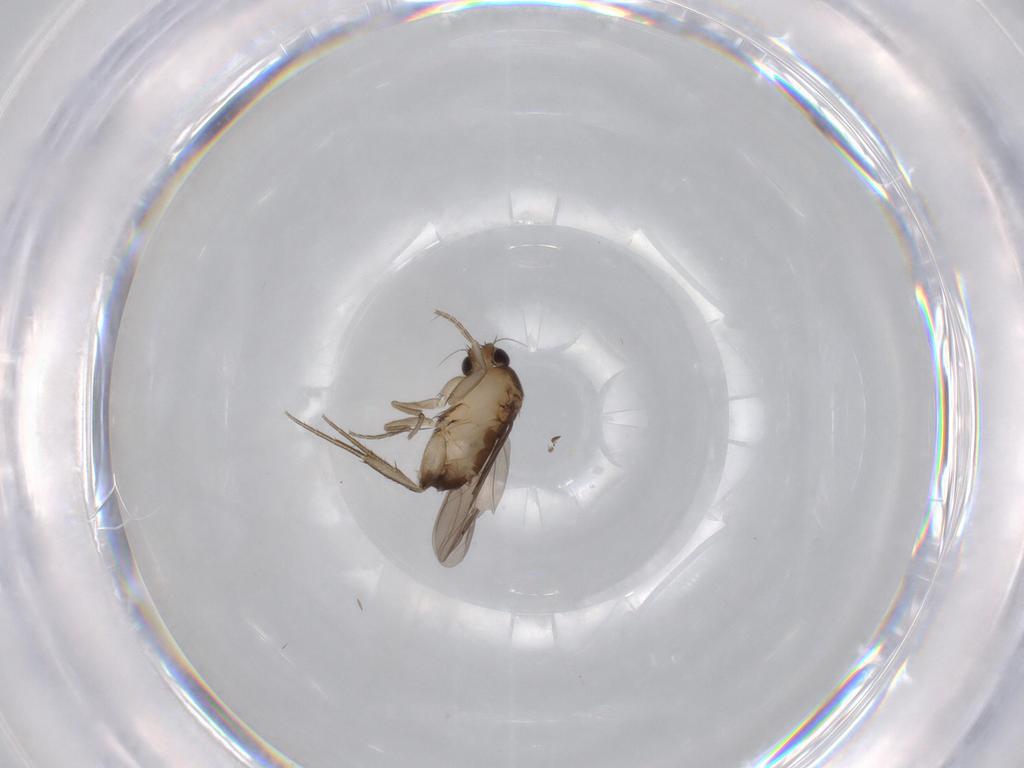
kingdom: Animalia
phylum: Arthropoda
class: Insecta
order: Diptera
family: Phoridae
